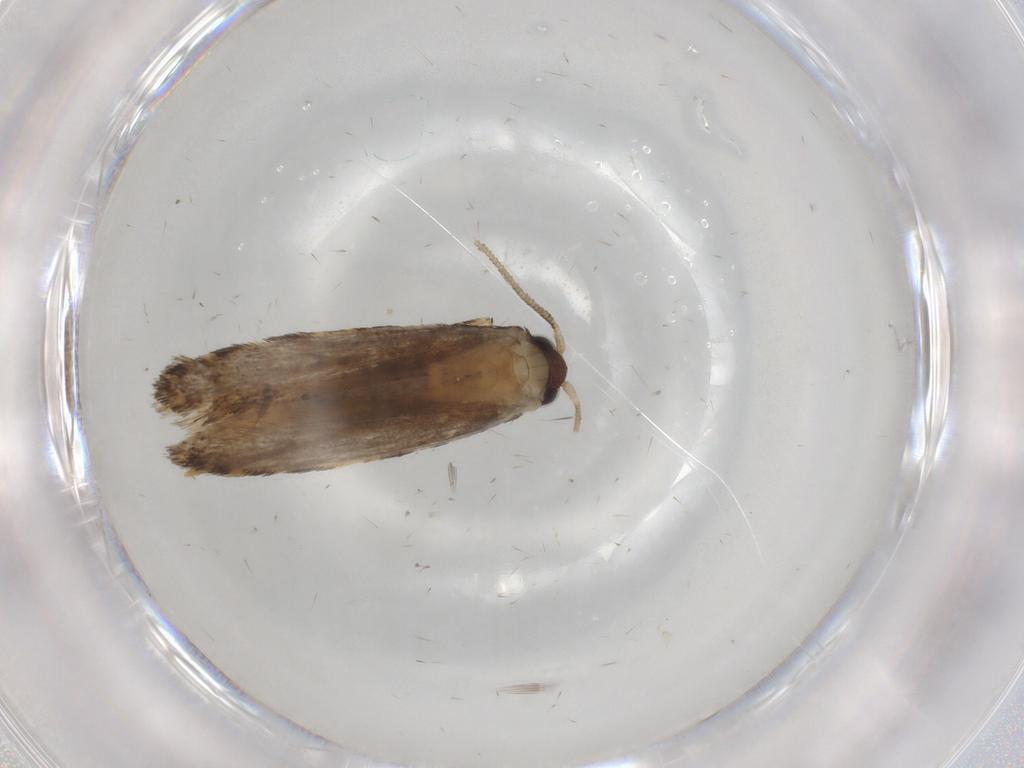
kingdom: Animalia
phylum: Arthropoda
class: Insecta
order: Lepidoptera
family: Tineidae
